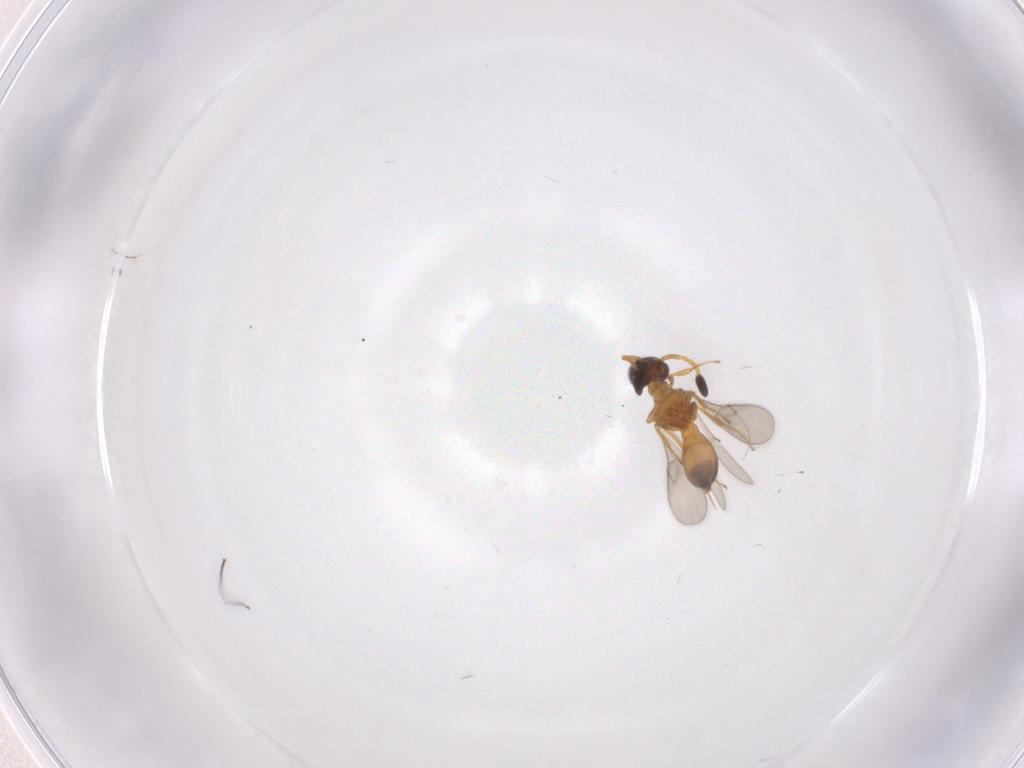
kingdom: Animalia
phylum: Arthropoda
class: Insecta
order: Hymenoptera
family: Scelionidae
